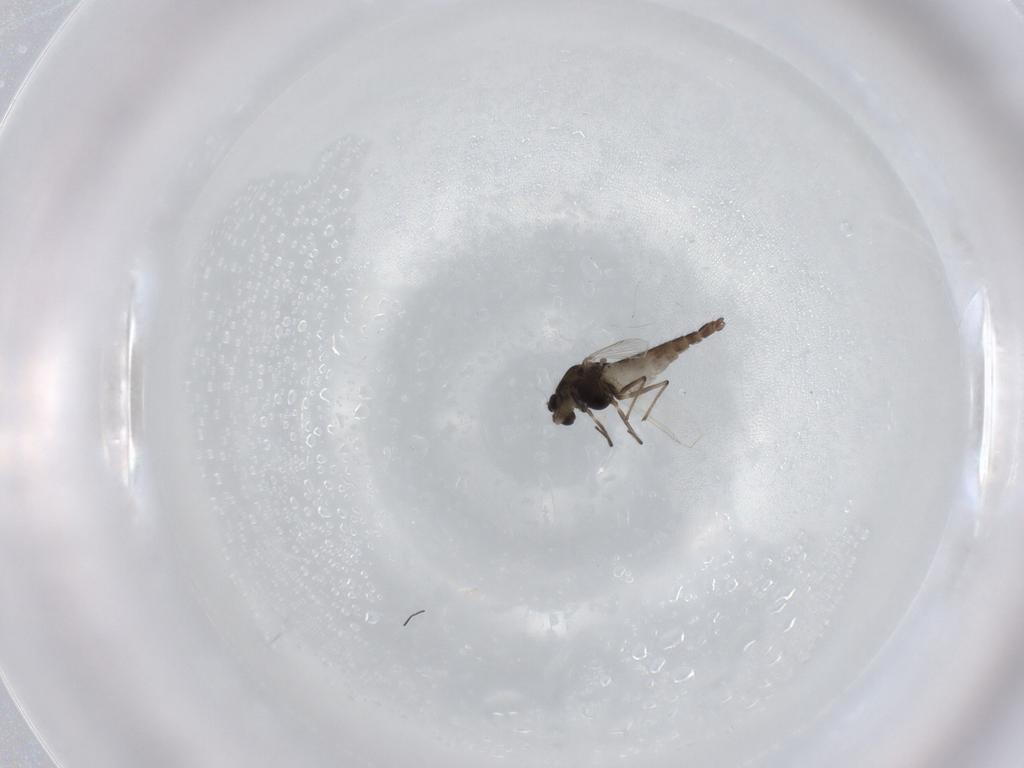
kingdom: Animalia
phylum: Arthropoda
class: Insecta
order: Diptera
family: Chironomidae
